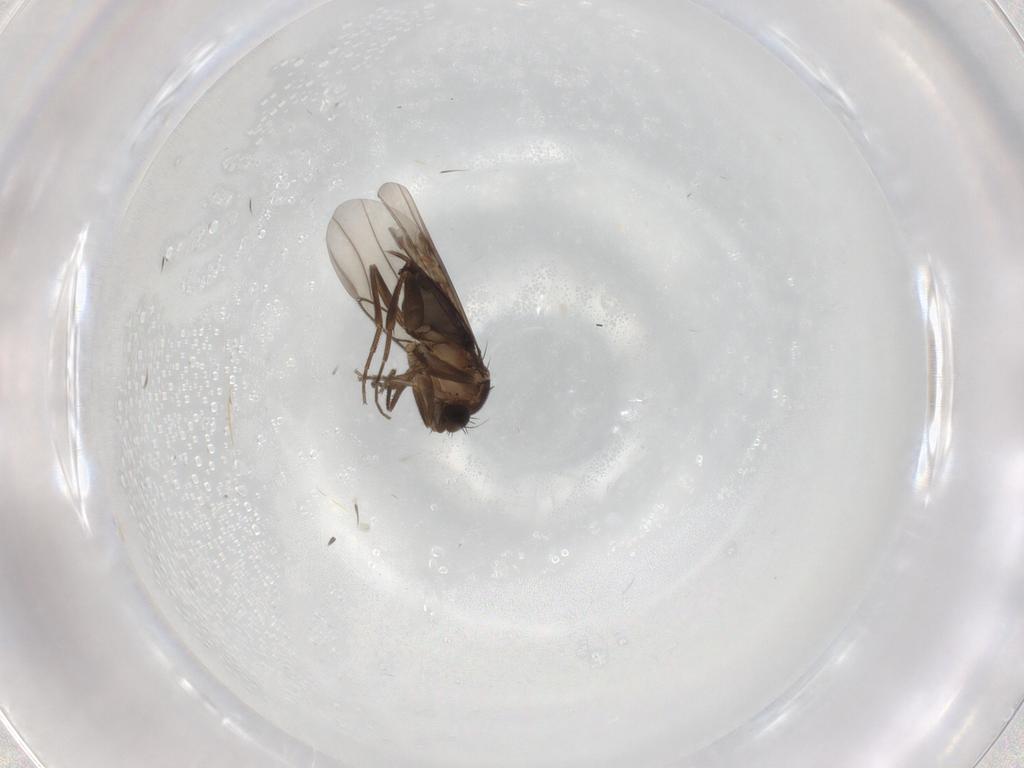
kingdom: Animalia
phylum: Arthropoda
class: Insecta
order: Diptera
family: Phoridae
